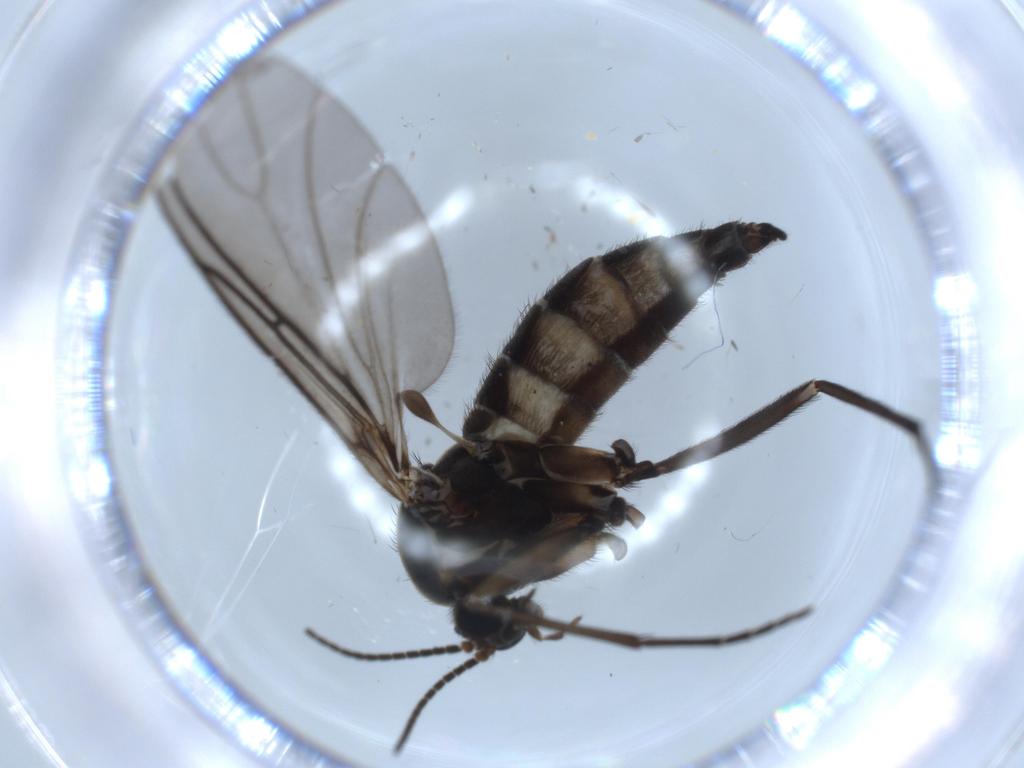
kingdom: Animalia
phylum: Arthropoda
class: Insecta
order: Diptera
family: Sciaridae
